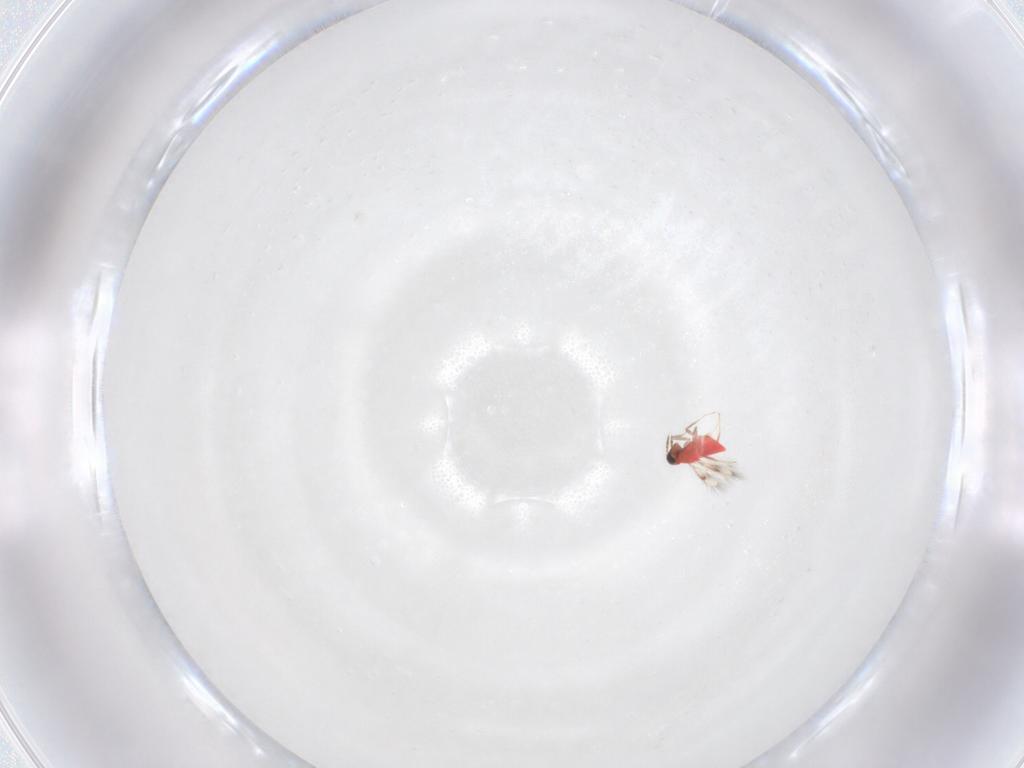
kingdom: Animalia
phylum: Arthropoda
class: Insecta
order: Hymenoptera
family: Trichogrammatidae
